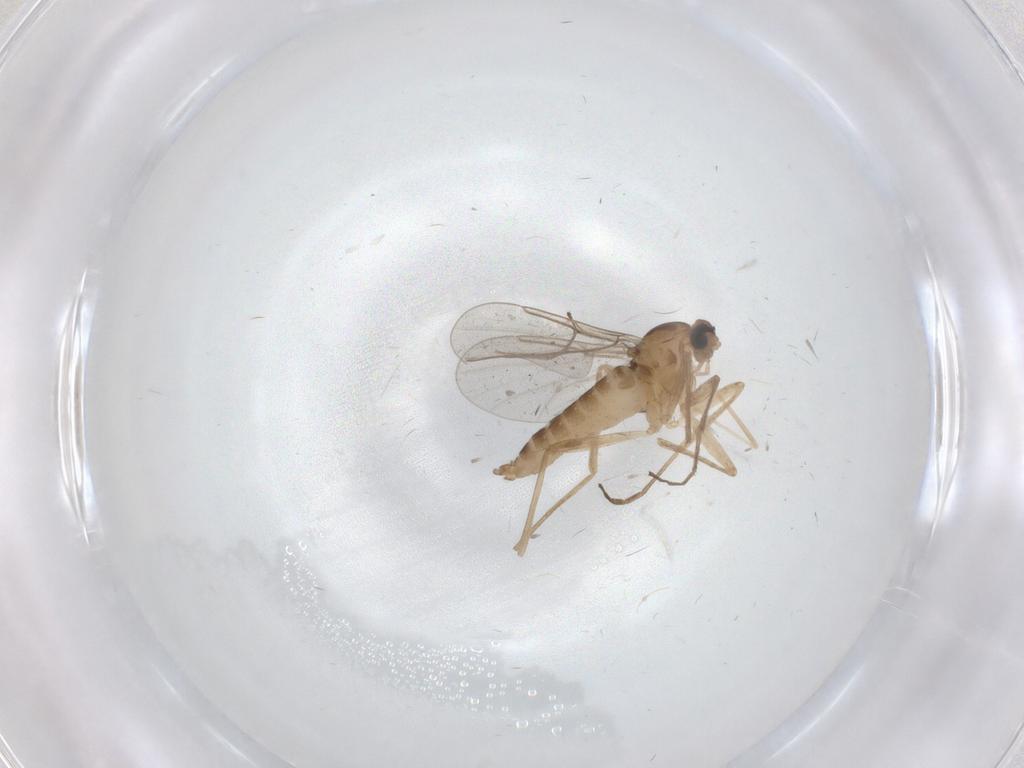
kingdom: Animalia
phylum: Arthropoda
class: Insecta
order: Diptera
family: Cecidomyiidae
